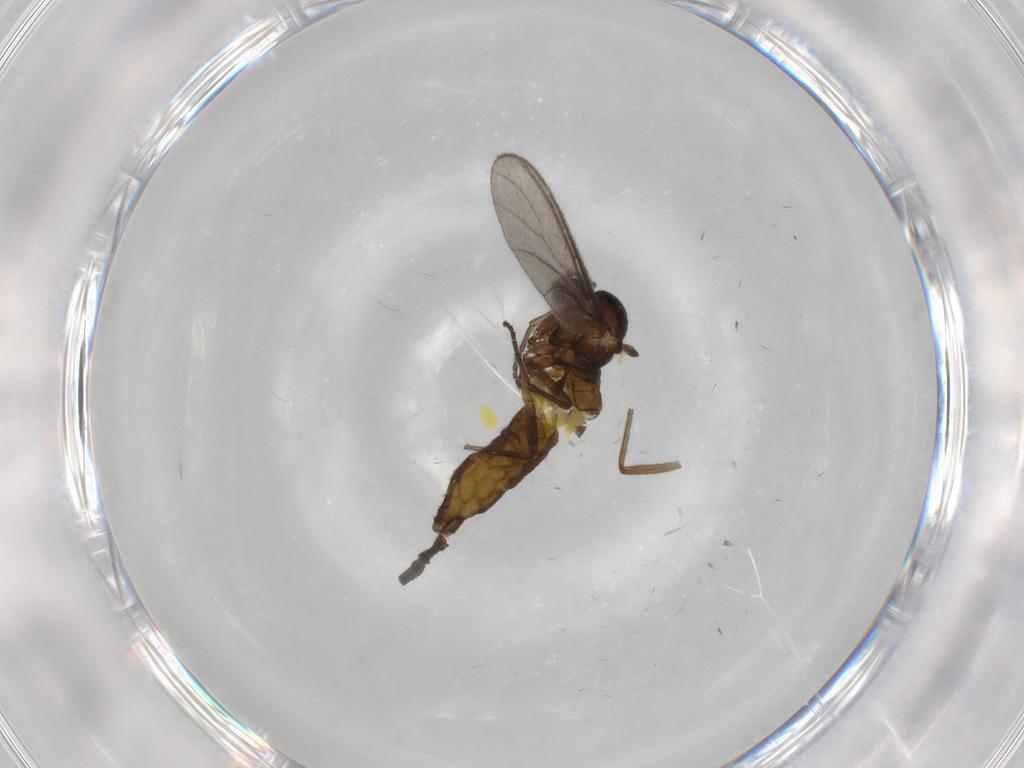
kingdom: Animalia
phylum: Arthropoda
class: Insecta
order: Diptera
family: Sciaridae
